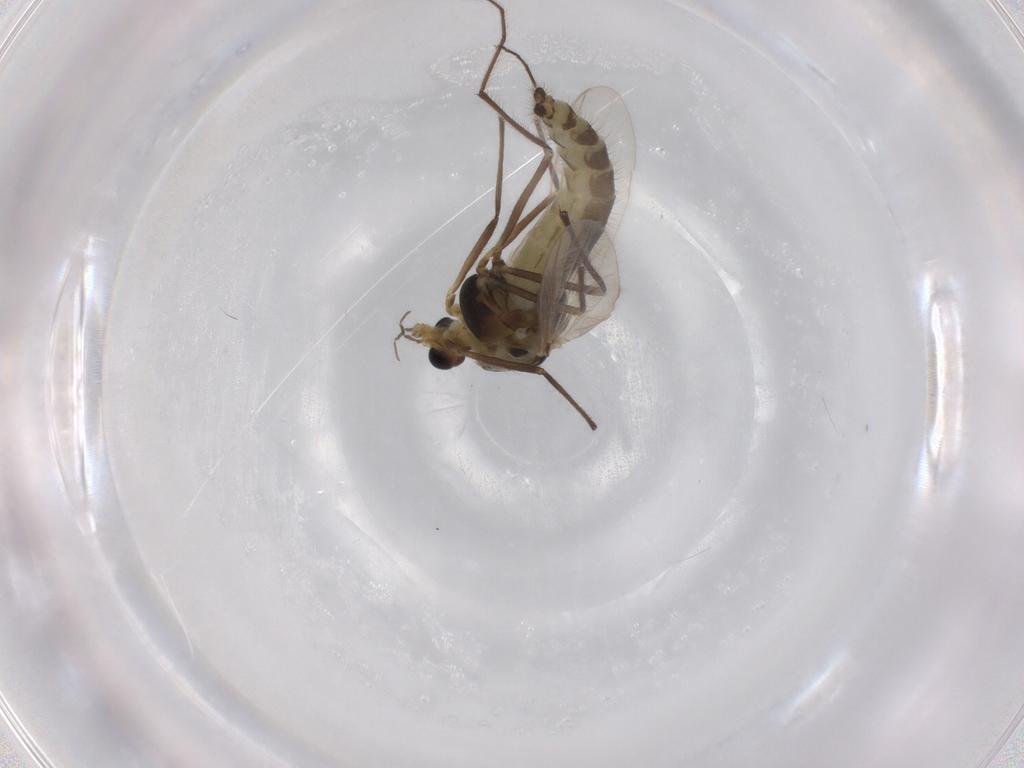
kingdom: Animalia
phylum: Arthropoda
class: Insecta
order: Diptera
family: Chironomidae
